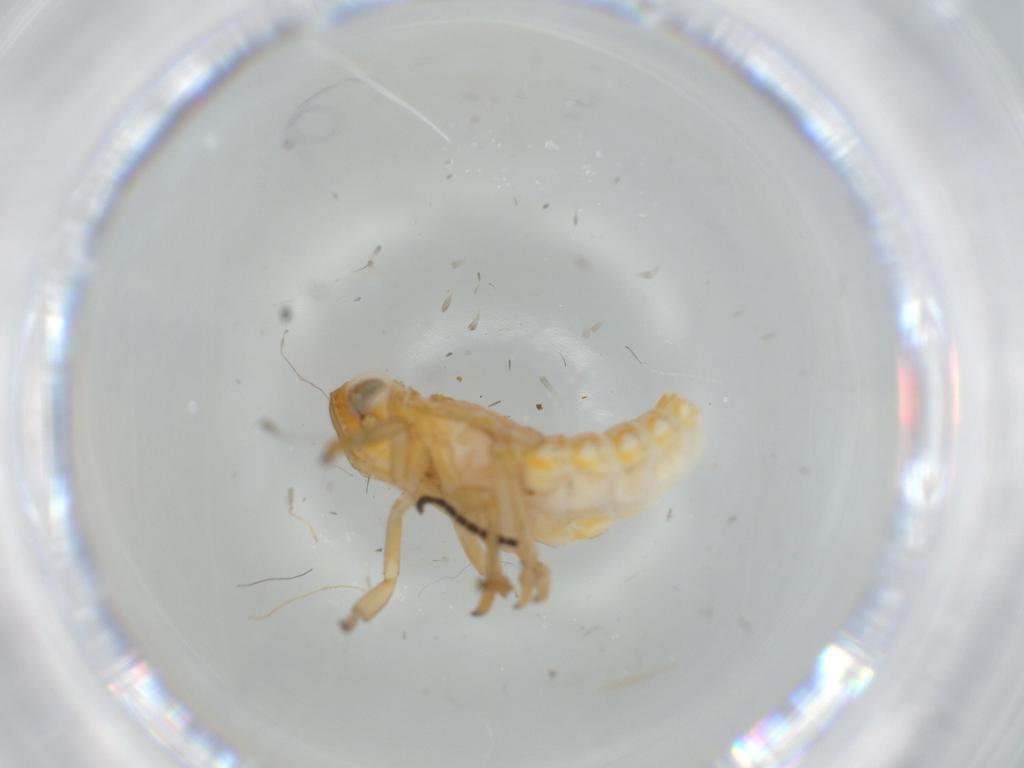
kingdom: Animalia
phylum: Arthropoda
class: Insecta
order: Hemiptera
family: Issidae
